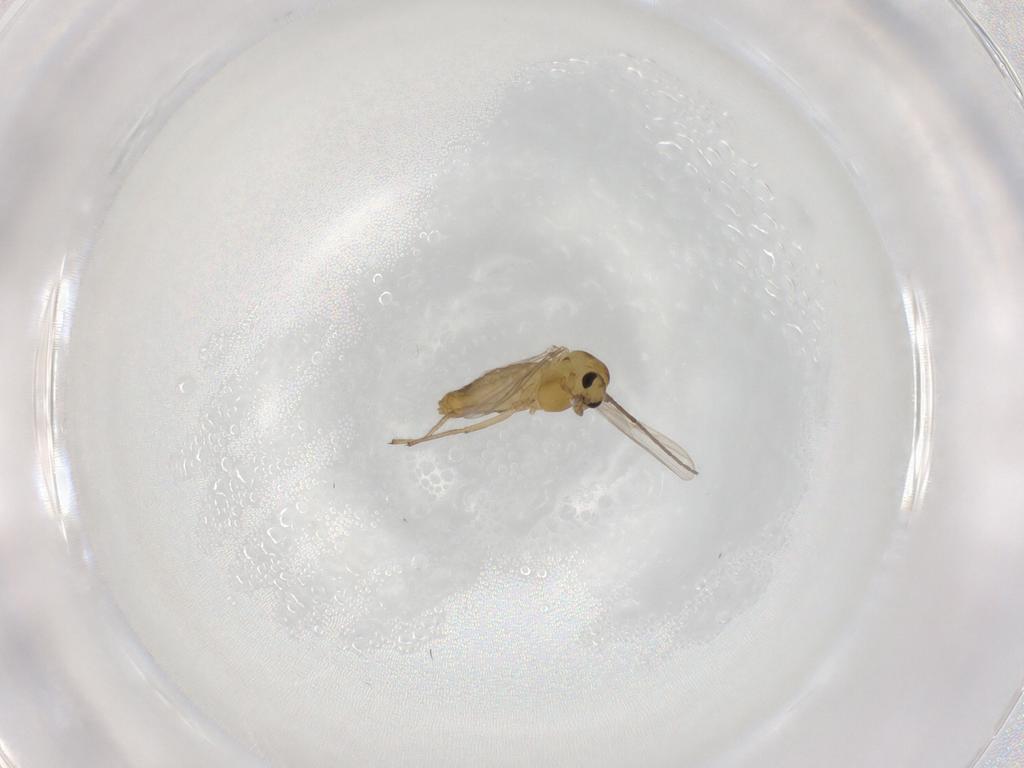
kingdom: Animalia
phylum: Arthropoda
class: Insecta
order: Diptera
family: Chironomidae
